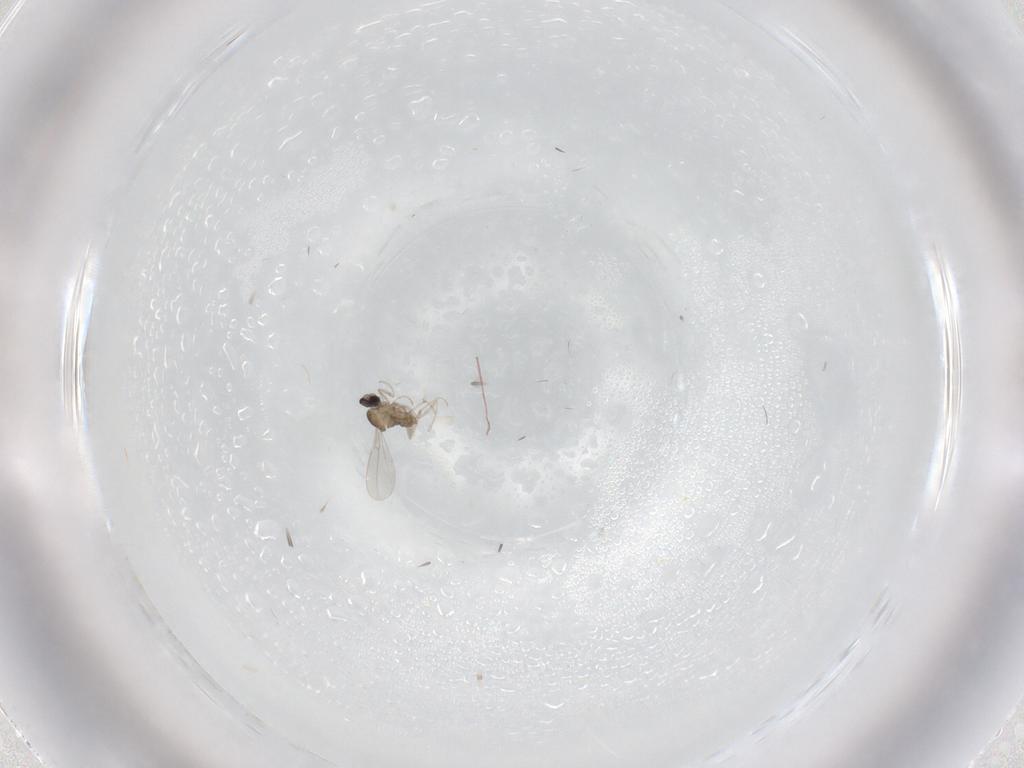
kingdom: Animalia
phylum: Arthropoda
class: Insecta
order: Diptera
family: Cecidomyiidae
